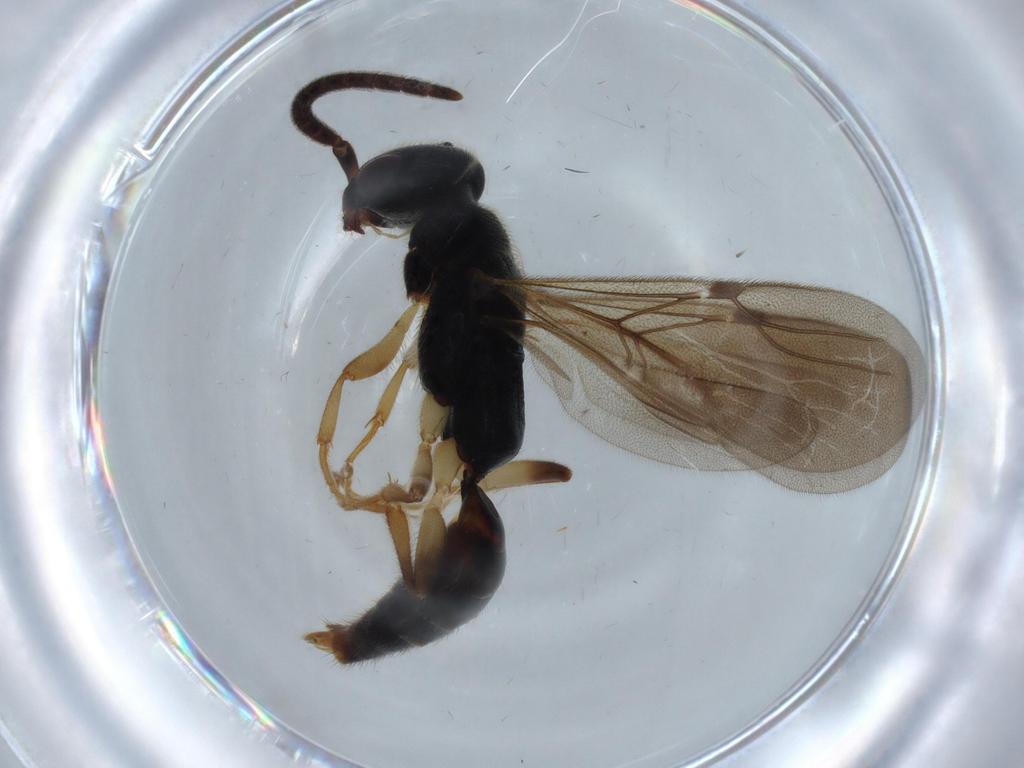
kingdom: Animalia
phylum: Arthropoda
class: Insecta
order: Hymenoptera
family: Bethylidae
